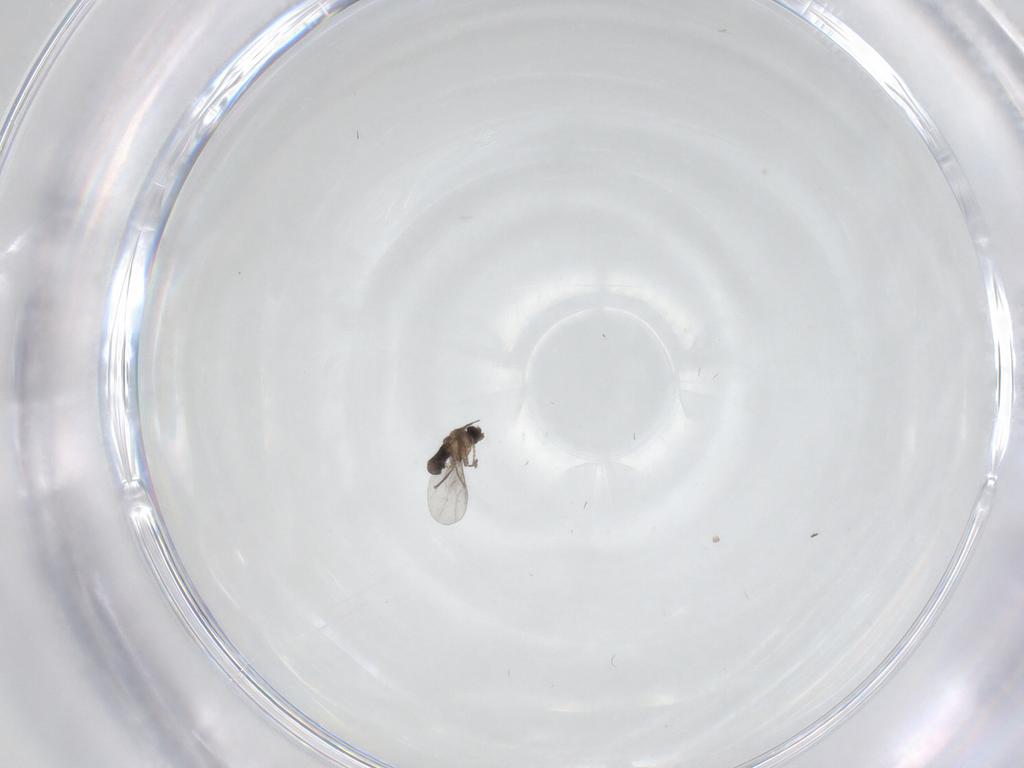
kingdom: Animalia
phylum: Arthropoda
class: Insecta
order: Diptera
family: Phoridae
